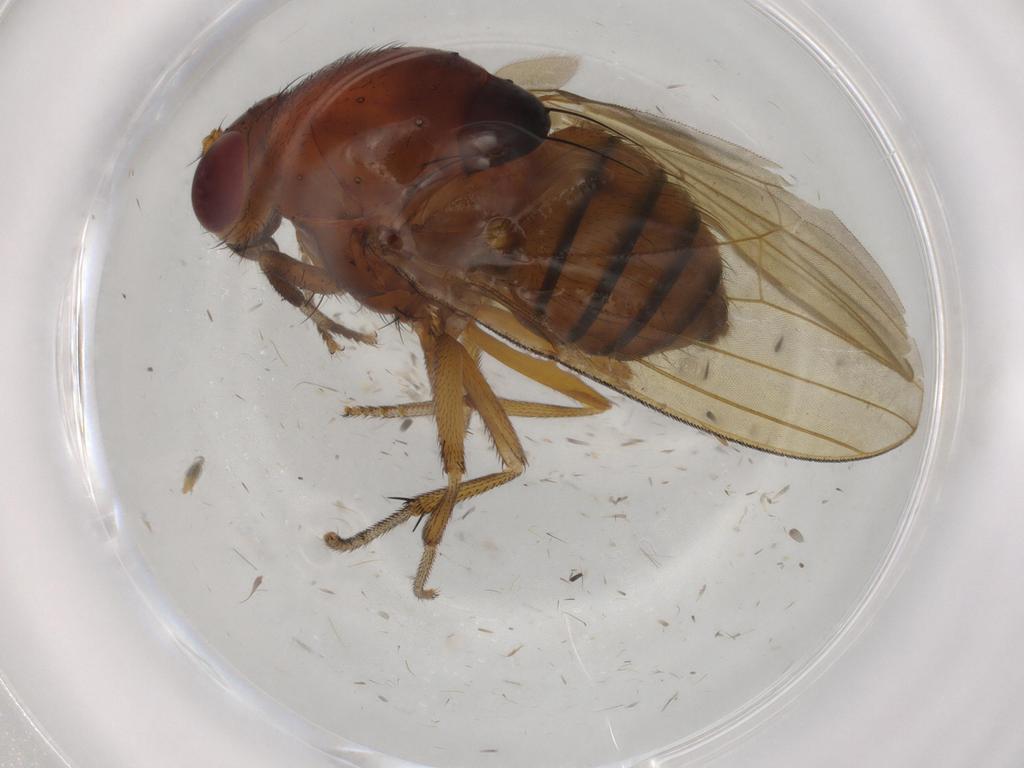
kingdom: Animalia
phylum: Arthropoda
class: Insecta
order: Diptera
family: Chironomidae
